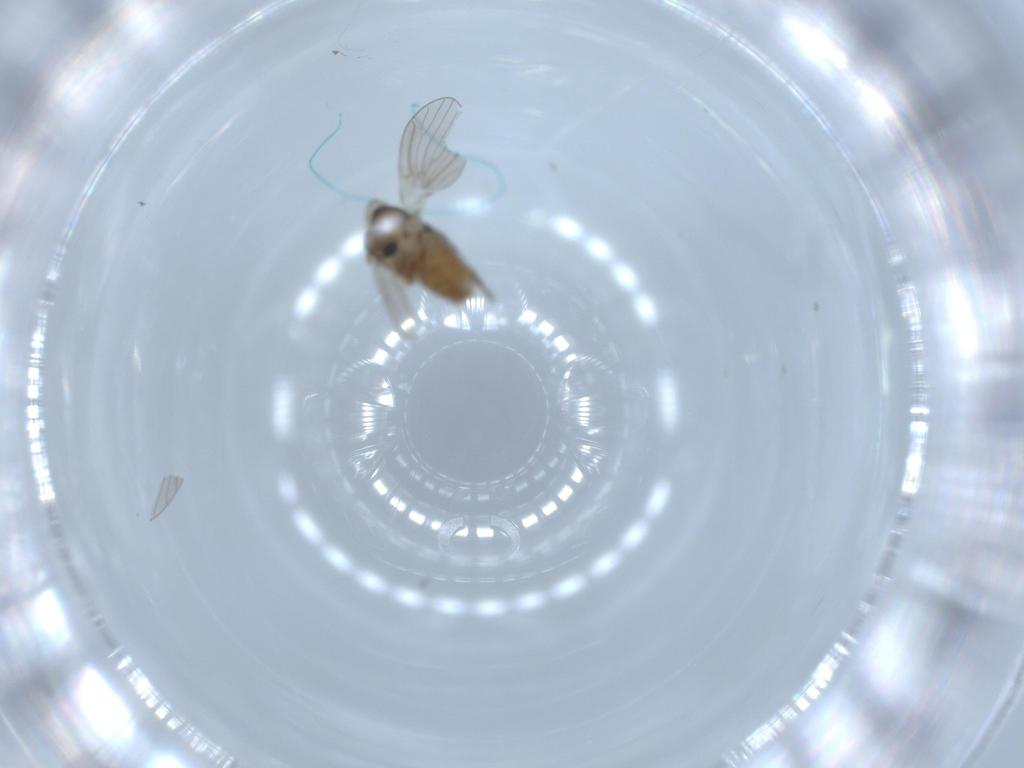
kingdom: Animalia
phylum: Arthropoda
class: Insecta
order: Diptera
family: Psychodidae
